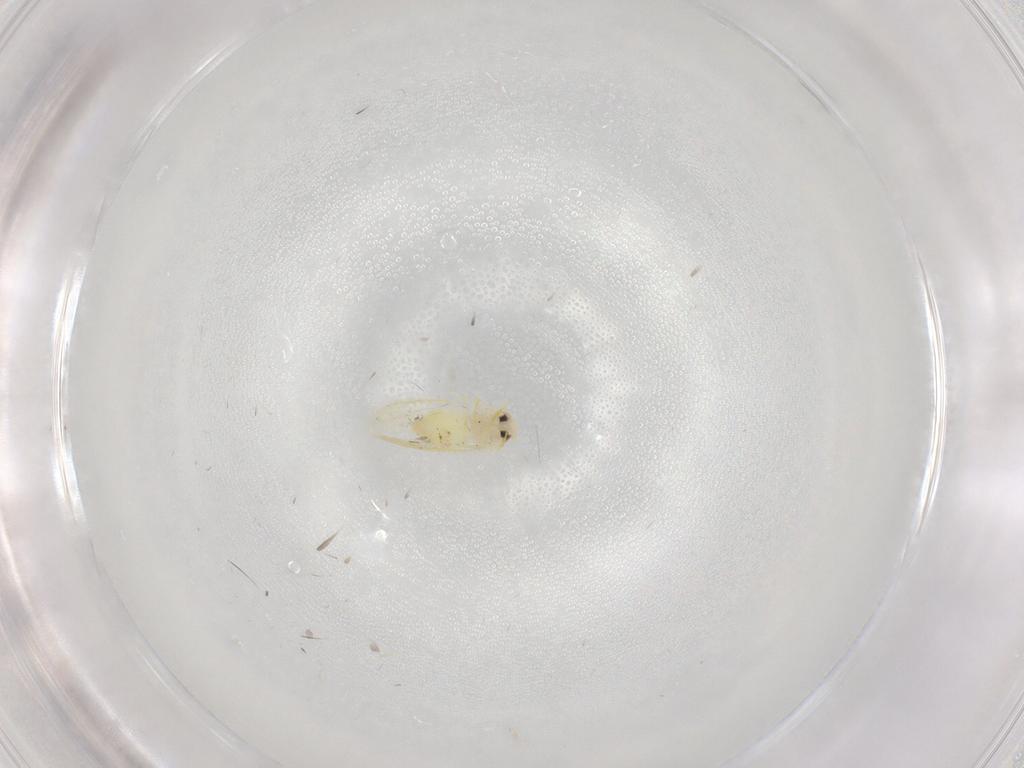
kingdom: Animalia
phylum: Arthropoda
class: Insecta
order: Hemiptera
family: Aleyrodidae
